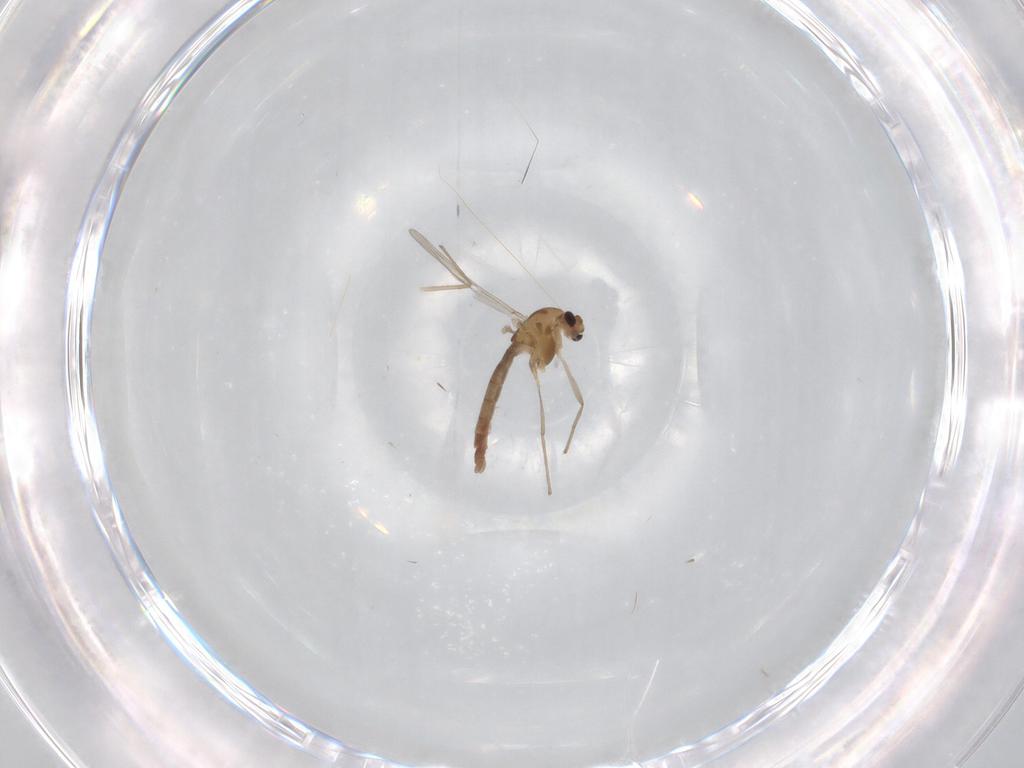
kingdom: Animalia
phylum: Arthropoda
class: Insecta
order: Diptera
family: Chironomidae
